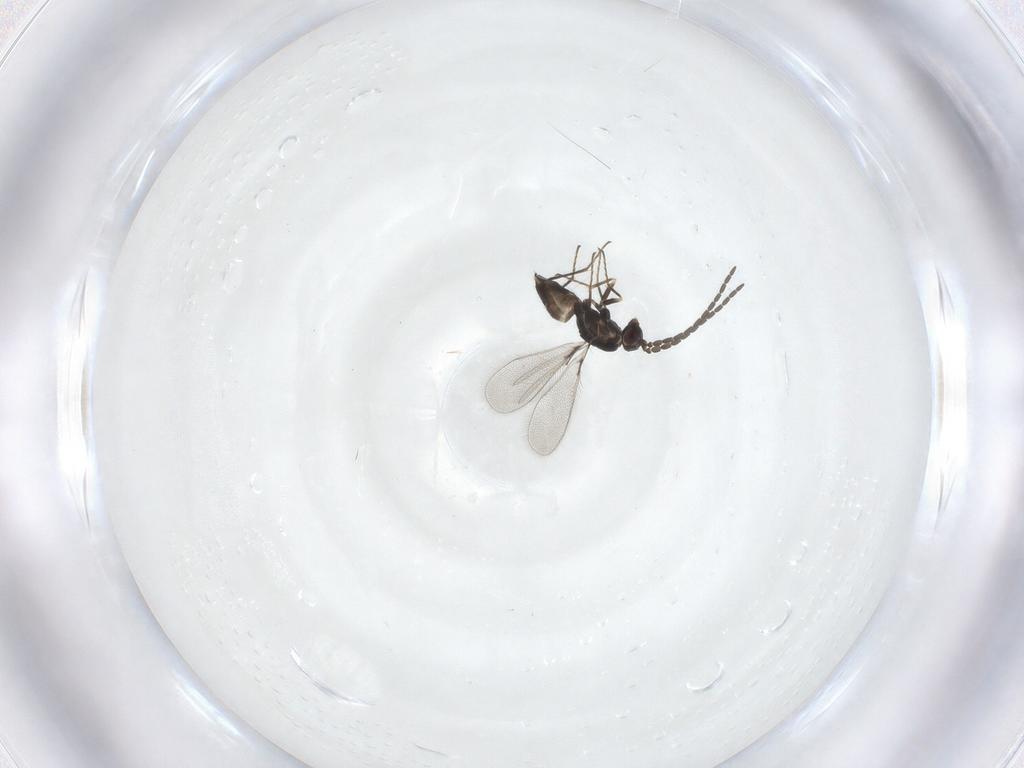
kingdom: Animalia
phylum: Arthropoda
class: Insecta
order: Hymenoptera
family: Mymaridae
